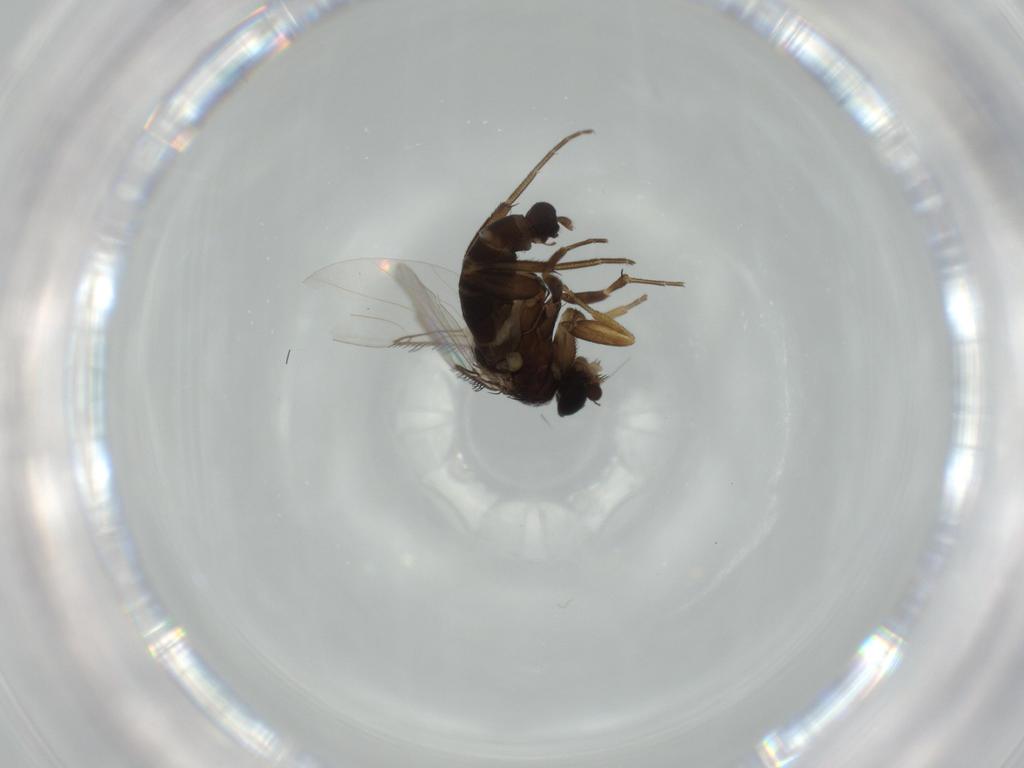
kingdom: Animalia
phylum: Arthropoda
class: Insecta
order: Diptera
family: Phoridae
